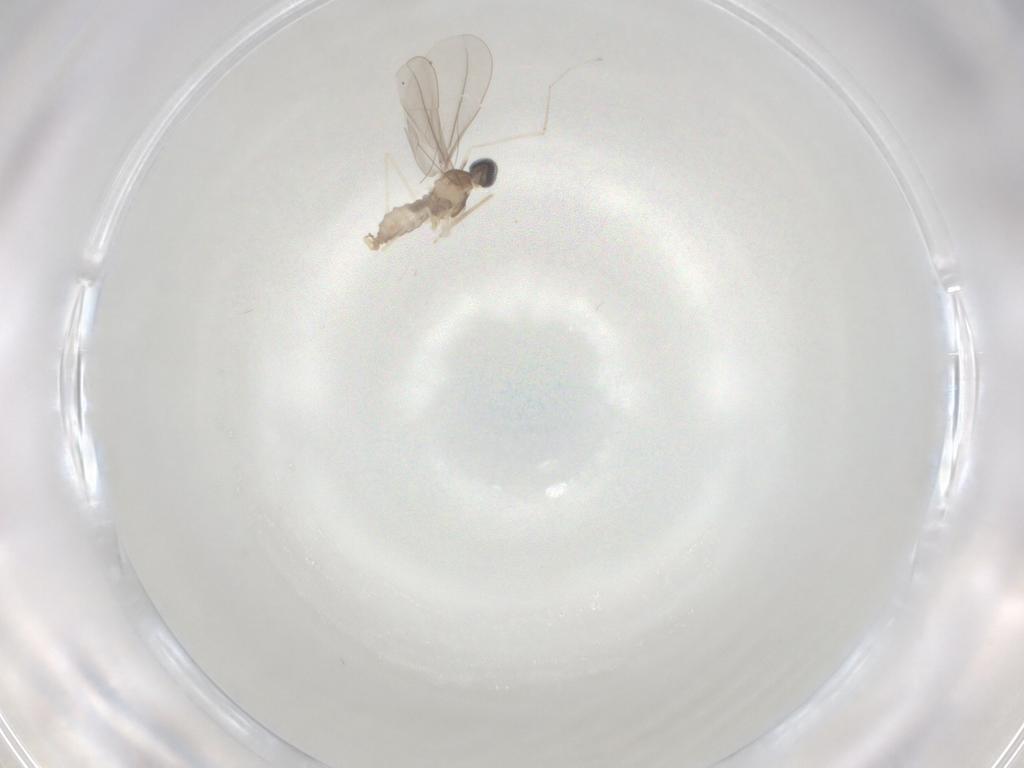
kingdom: Animalia
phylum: Arthropoda
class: Insecta
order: Diptera
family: Cecidomyiidae
